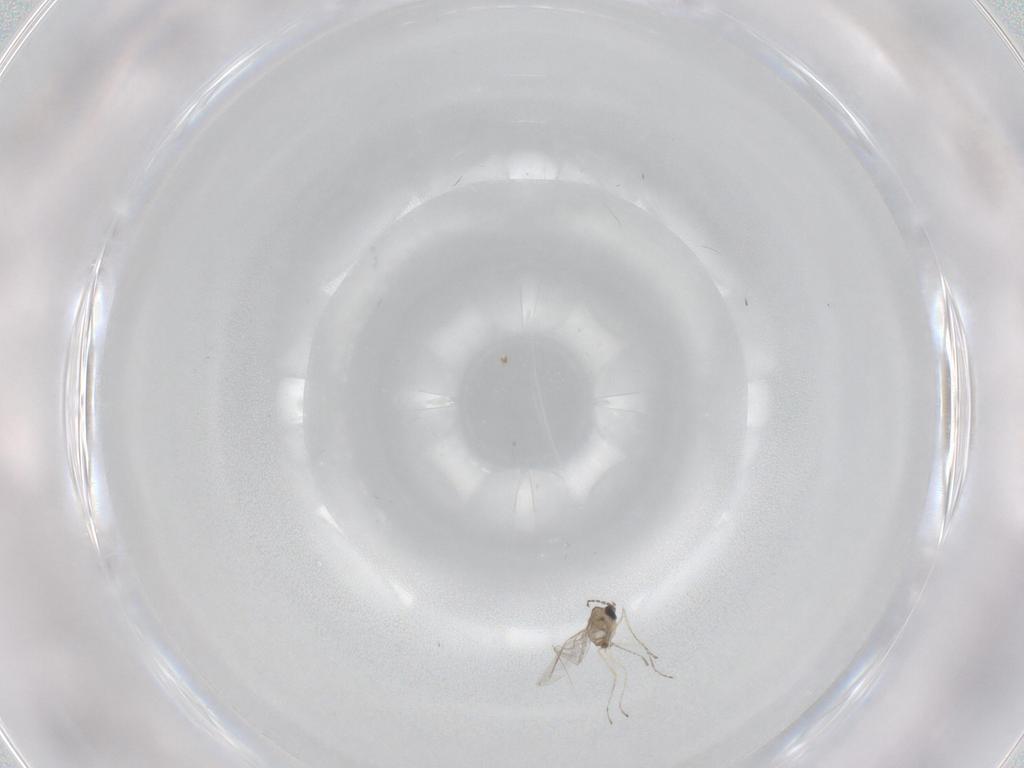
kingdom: Animalia
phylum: Arthropoda
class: Insecta
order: Diptera
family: Cecidomyiidae
